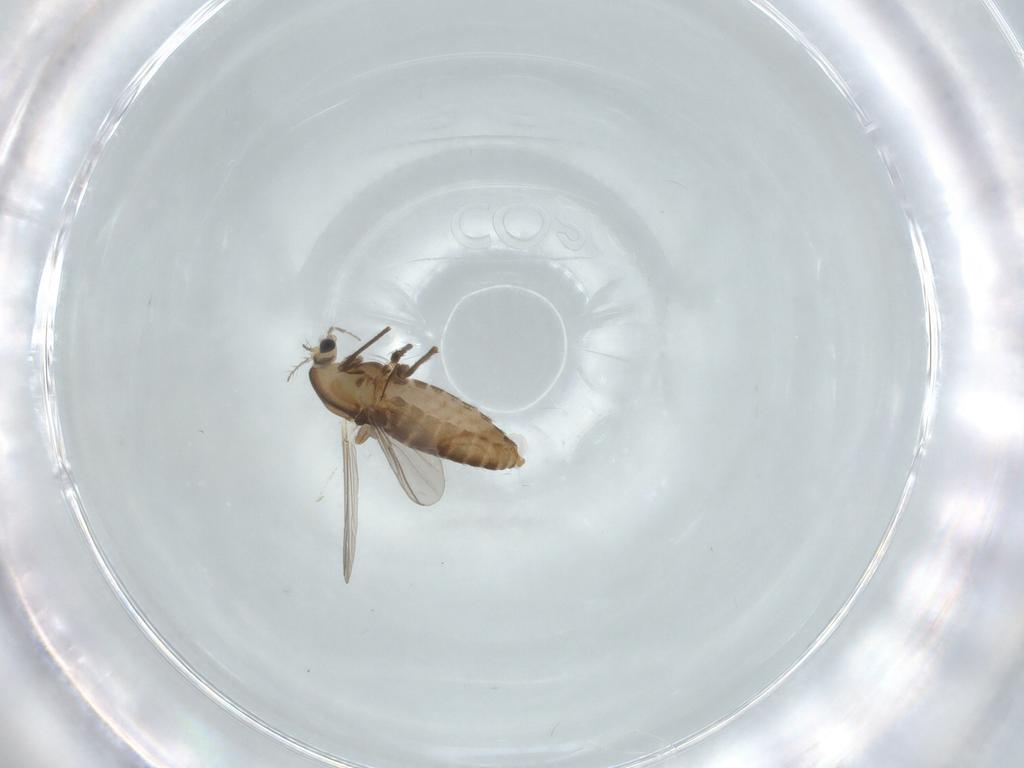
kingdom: Animalia
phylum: Arthropoda
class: Insecta
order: Diptera
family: Chironomidae
